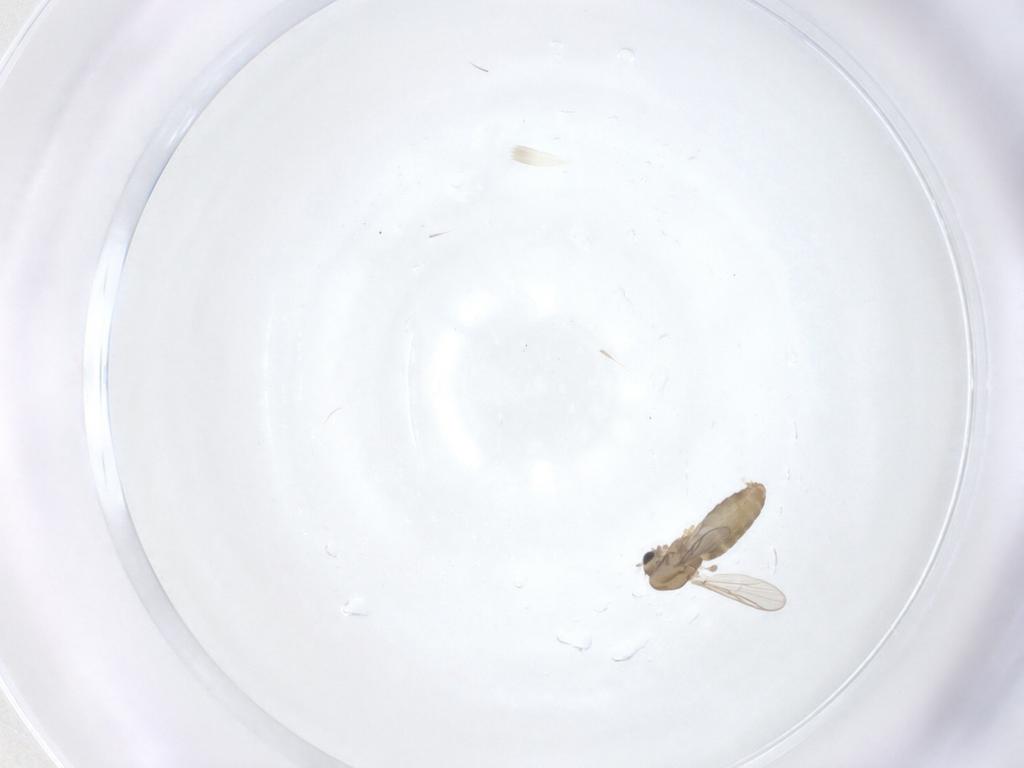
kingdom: Animalia
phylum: Arthropoda
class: Insecta
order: Diptera
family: Chironomidae
